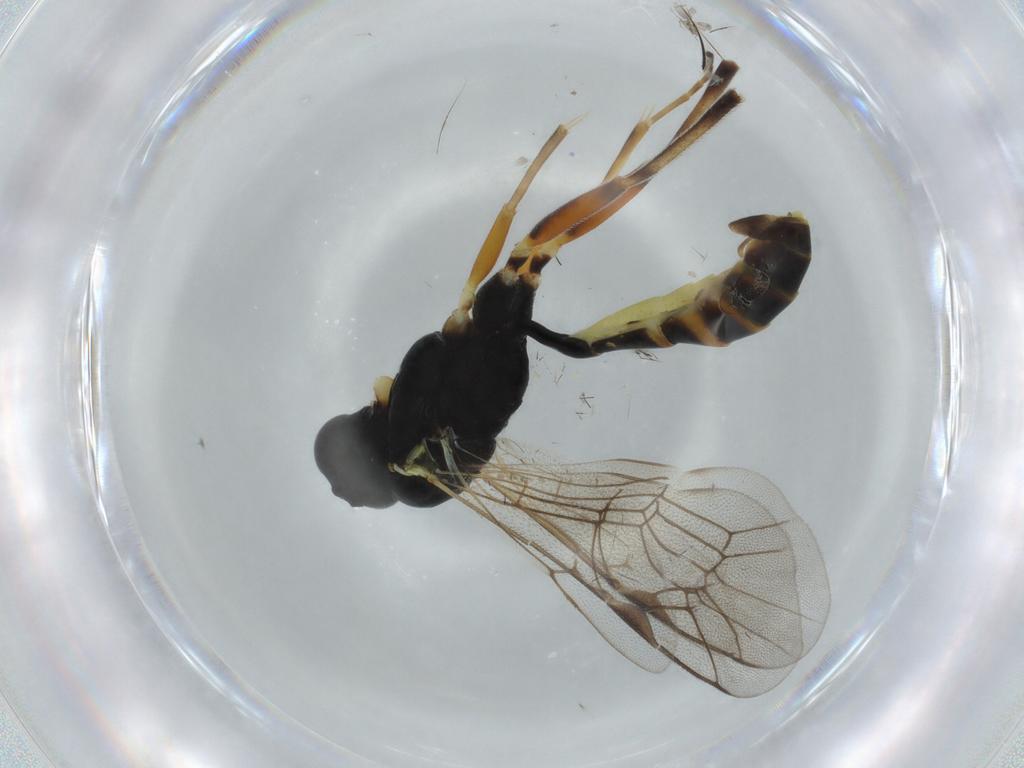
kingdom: Animalia
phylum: Arthropoda
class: Insecta
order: Hymenoptera
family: Ichneumonidae
